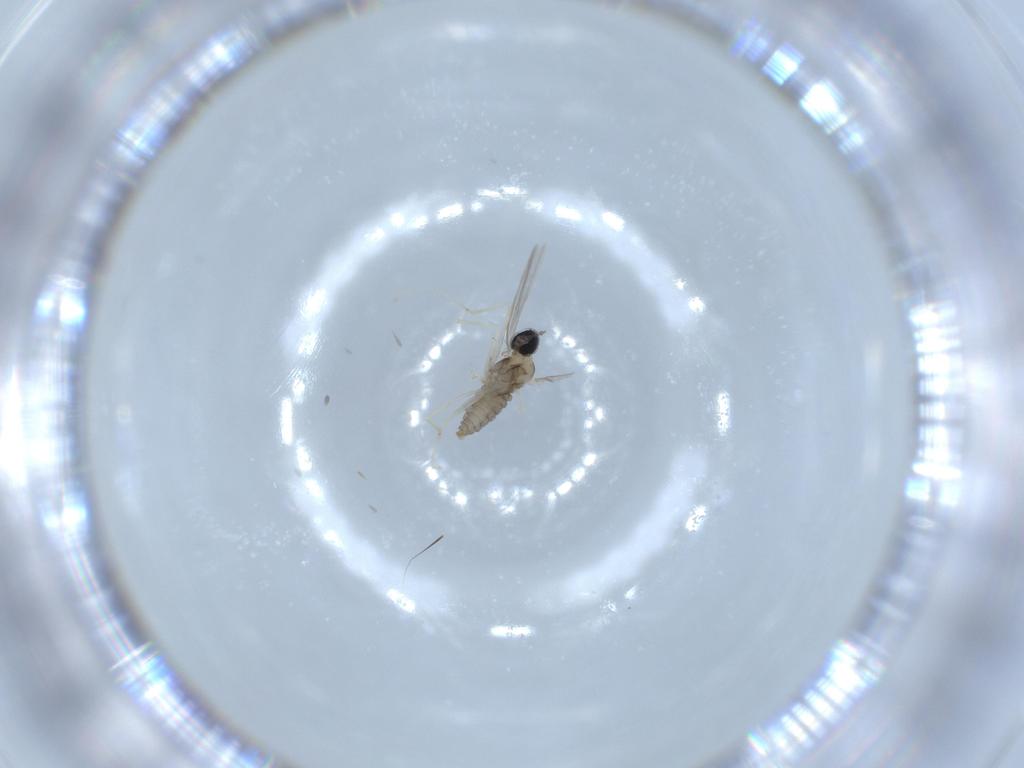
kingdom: Animalia
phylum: Arthropoda
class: Insecta
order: Diptera
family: Cecidomyiidae
